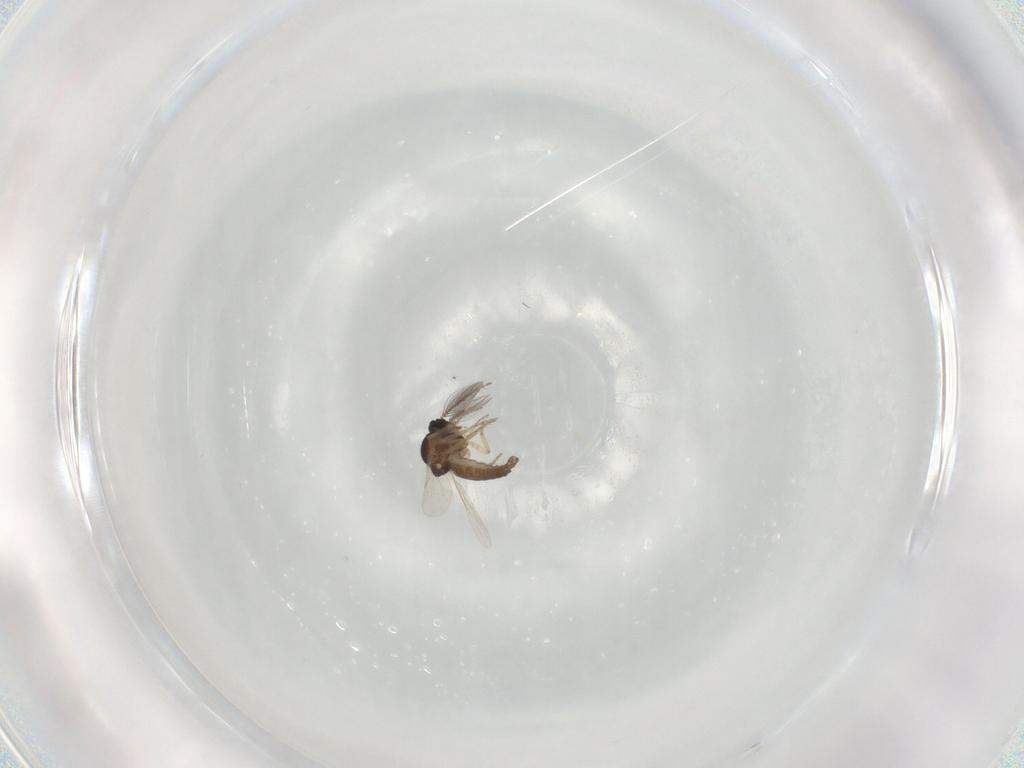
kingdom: Animalia
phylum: Arthropoda
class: Insecta
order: Diptera
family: Ceratopogonidae
